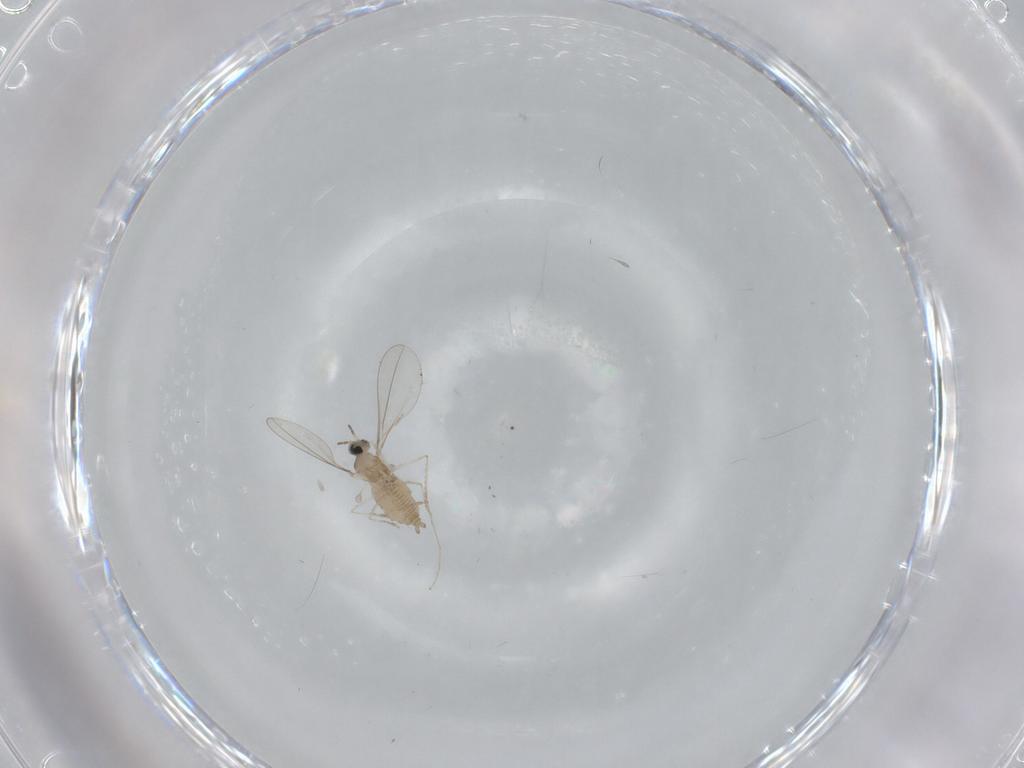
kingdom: Animalia
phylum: Arthropoda
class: Insecta
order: Diptera
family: Chironomidae
